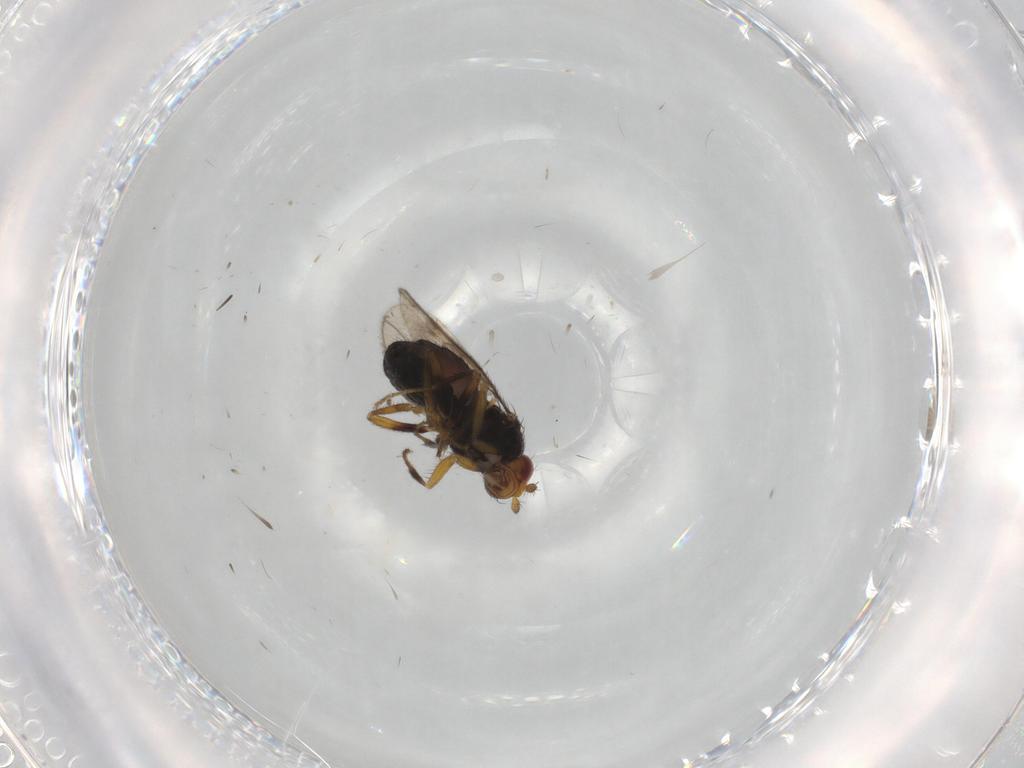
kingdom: Animalia
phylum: Arthropoda
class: Insecta
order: Diptera
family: Sphaeroceridae
